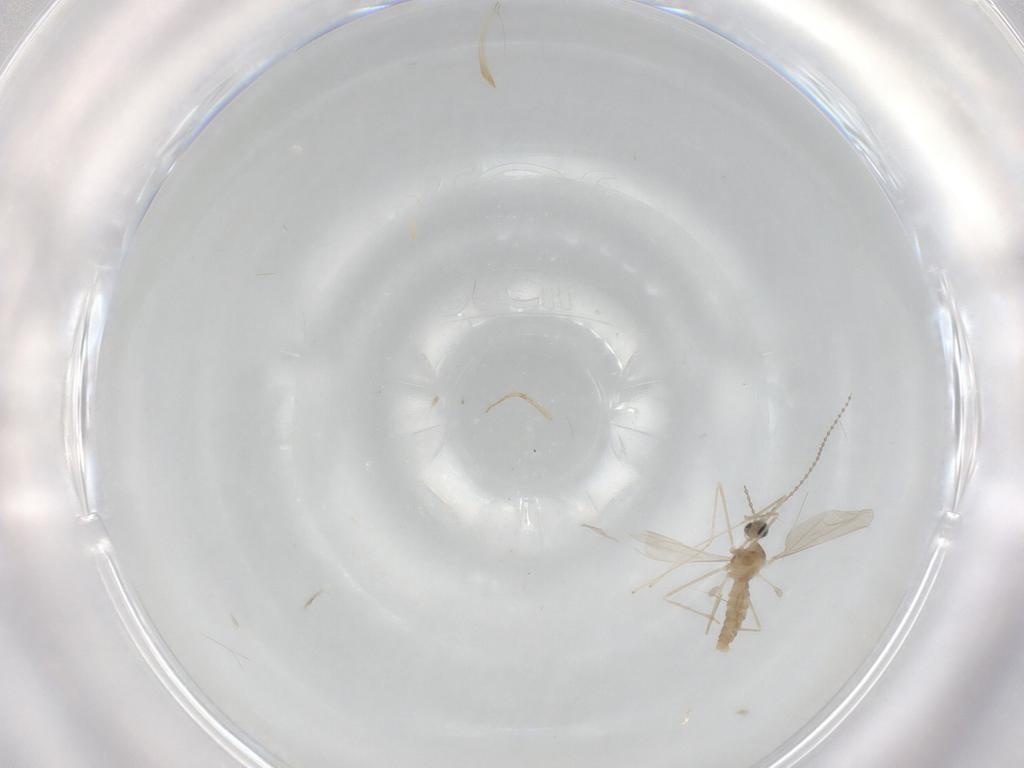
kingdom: Animalia
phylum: Arthropoda
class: Insecta
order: Diptera
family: Cecidomyiidae
